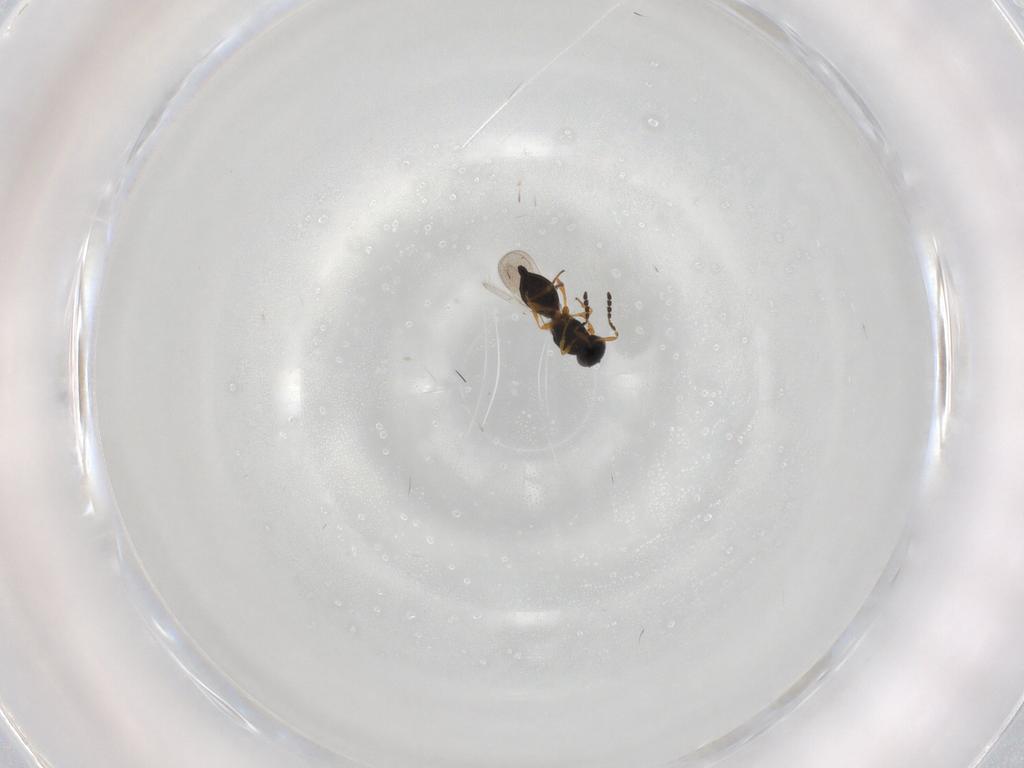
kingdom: Animalia
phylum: Arthropoda
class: Insecta
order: Hymenoptera
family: Platygastridae
